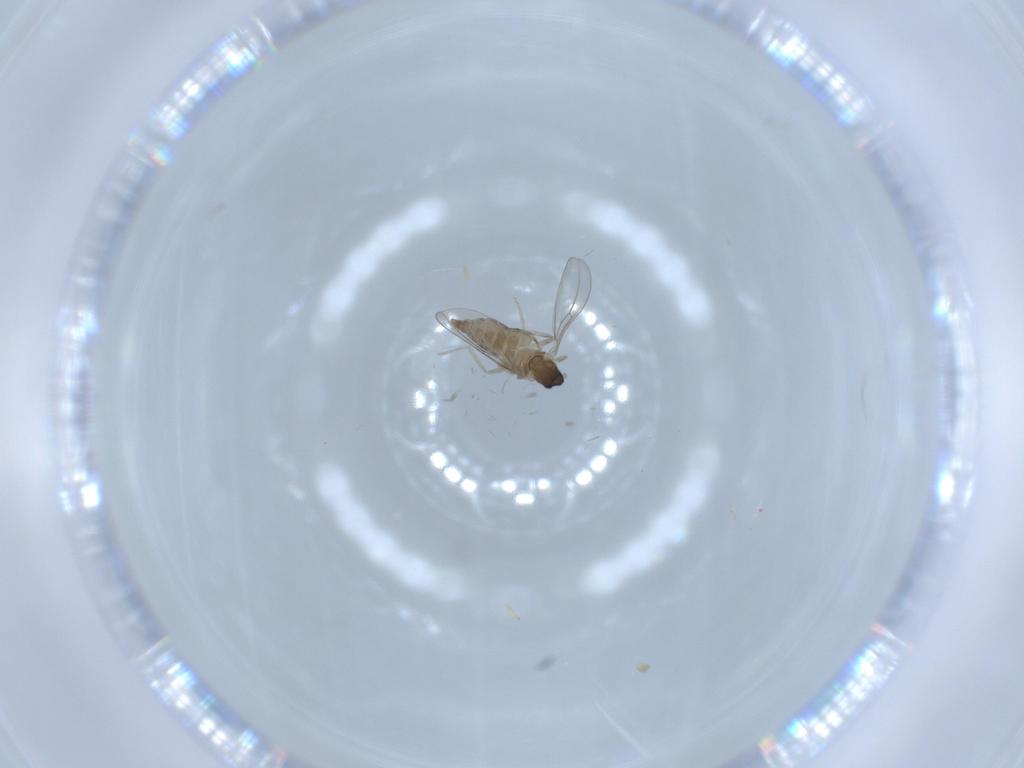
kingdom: Animalia
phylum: Arthropoda
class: Insecta
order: Diptera
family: Cecidomyiidae
